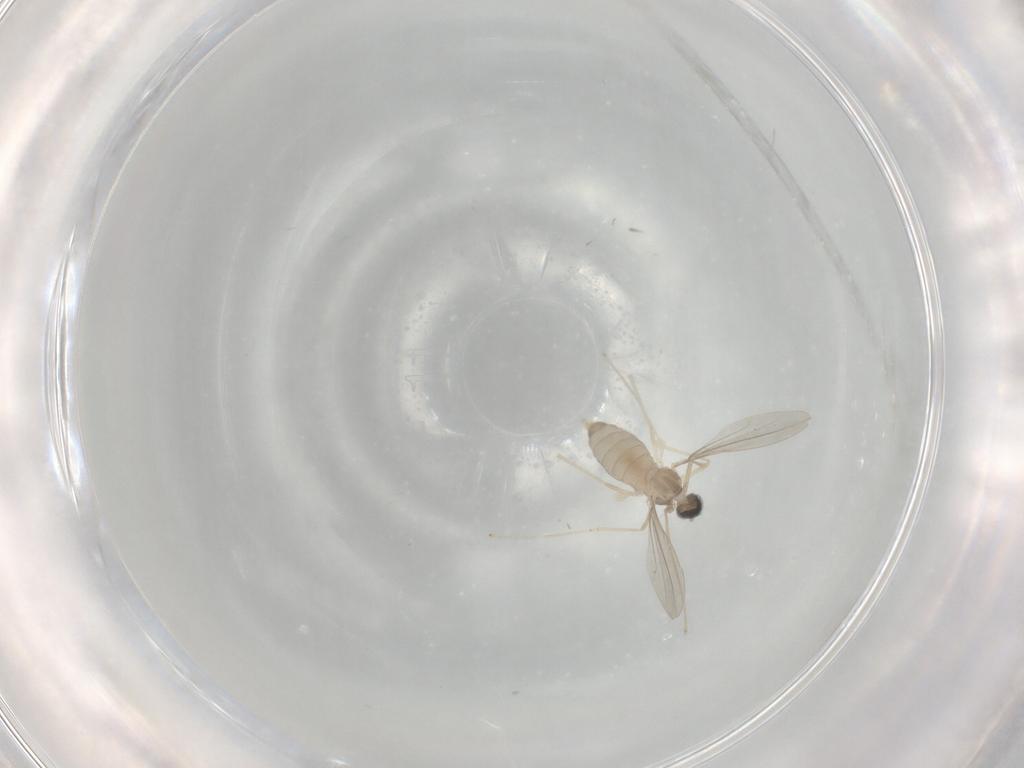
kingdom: Animalia
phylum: Arthropoda
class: Insecta
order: Diptera
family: Cecidomyiidae
